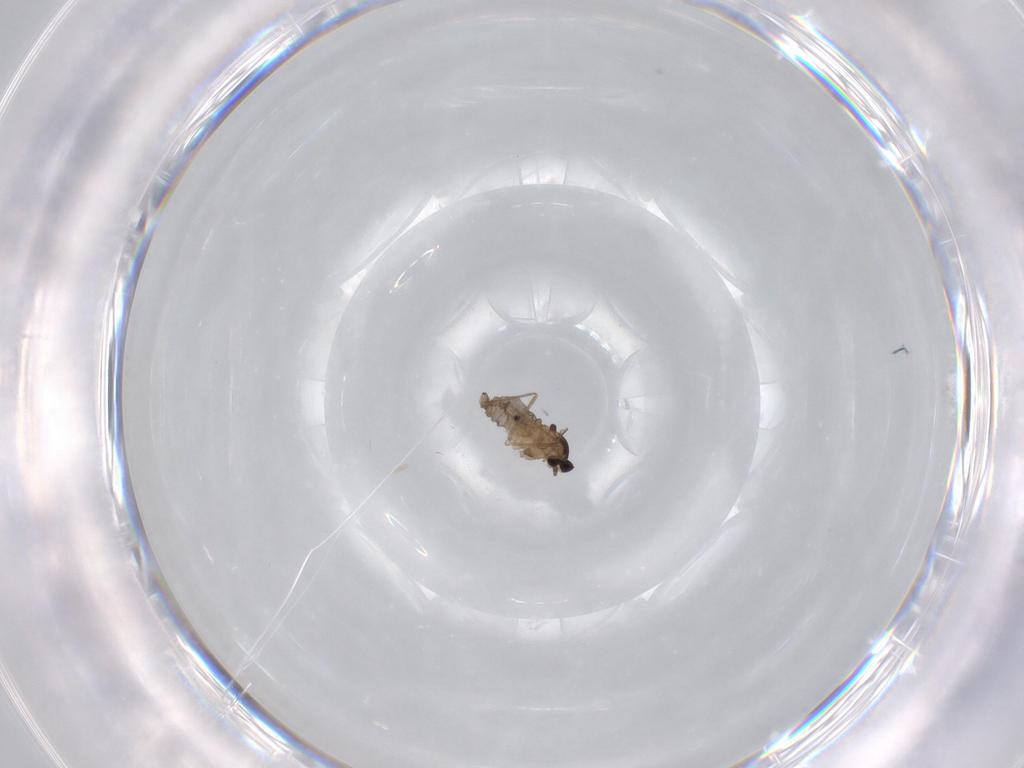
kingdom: Animalia
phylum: Arthropoda
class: Insecta
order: Diptera
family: Cecidomyiidae
